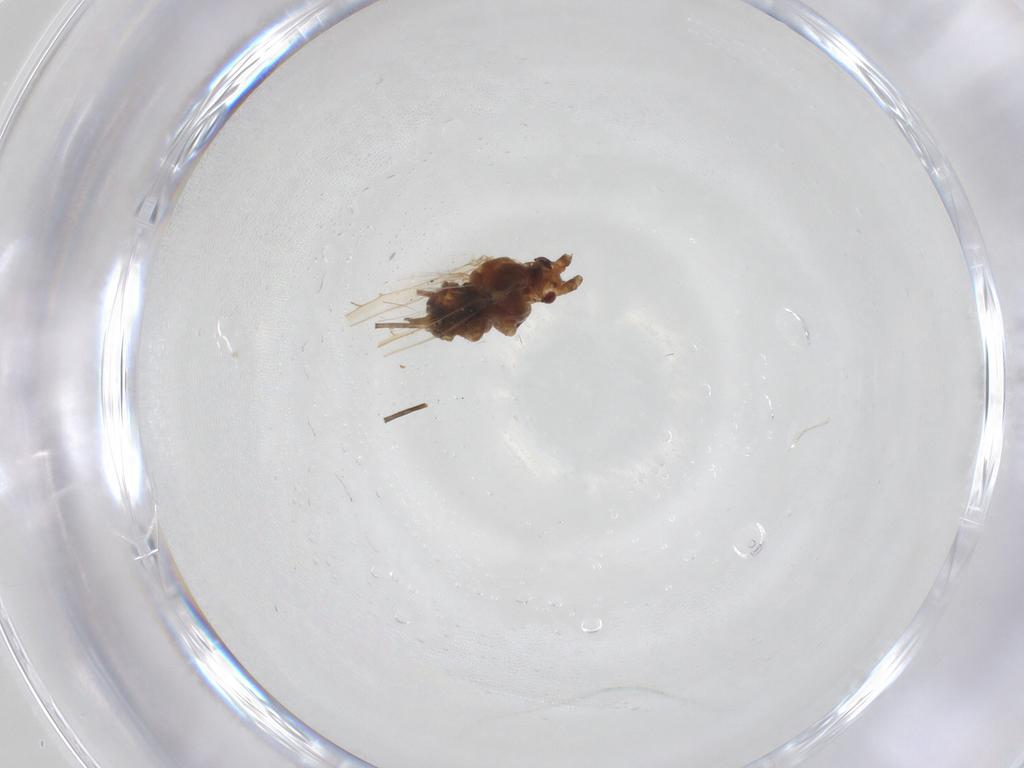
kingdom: Animalia
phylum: Arthropoda
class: Insecta
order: Hemiptera
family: Aphididae
